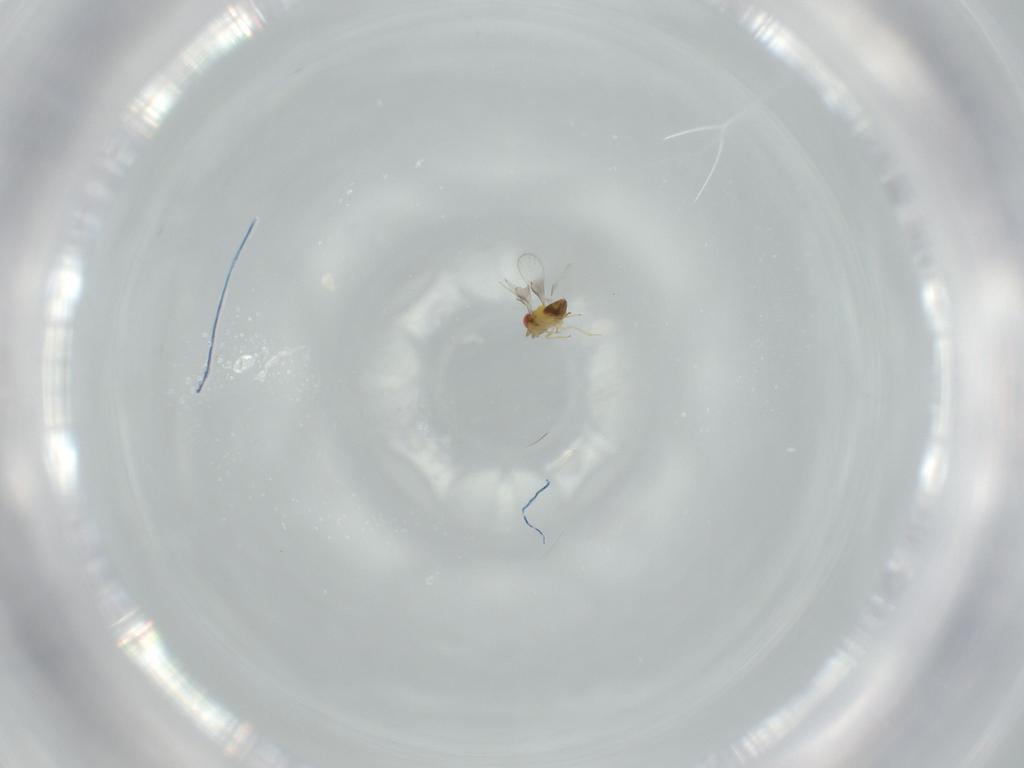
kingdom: Animalia
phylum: Arthropoda
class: Insecta
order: Hymenoptera
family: Trichogrammatidae
